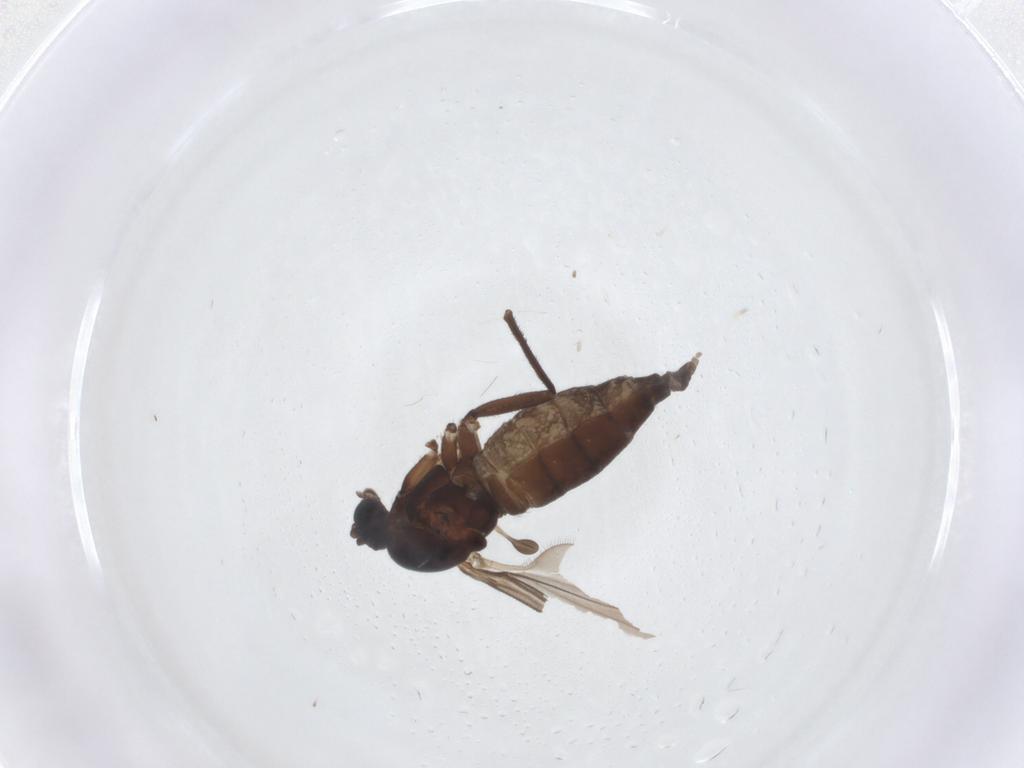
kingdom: Animalia
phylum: Arthropoda
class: Insecta
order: Diptera
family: Sciaridae
